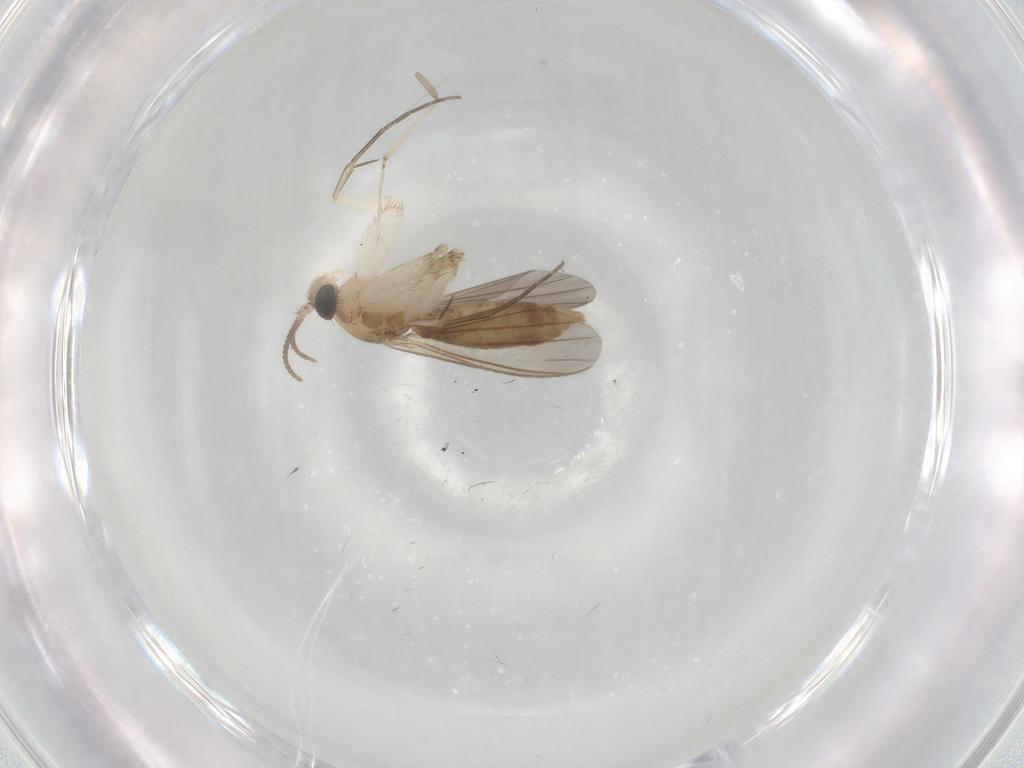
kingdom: Animalia
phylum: Arthropoda
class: Insecta
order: Diptera
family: Mycetophilidae
